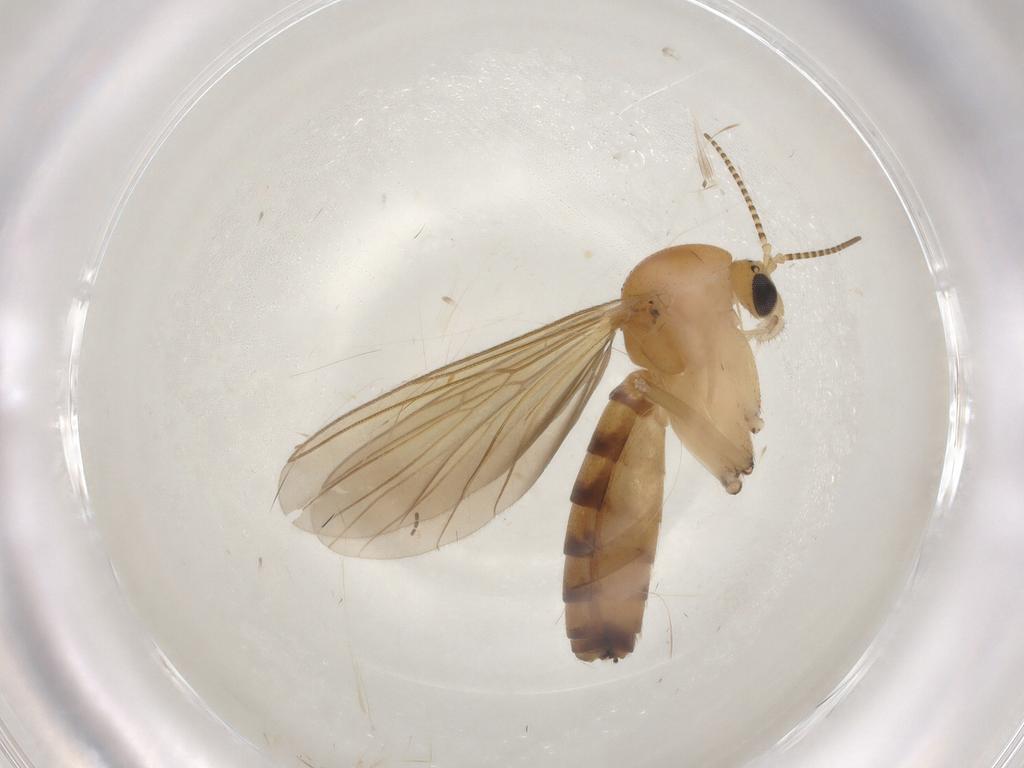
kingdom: Animalia
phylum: Arthropoda
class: Insecta
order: Diptera
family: Mycetophilidae
